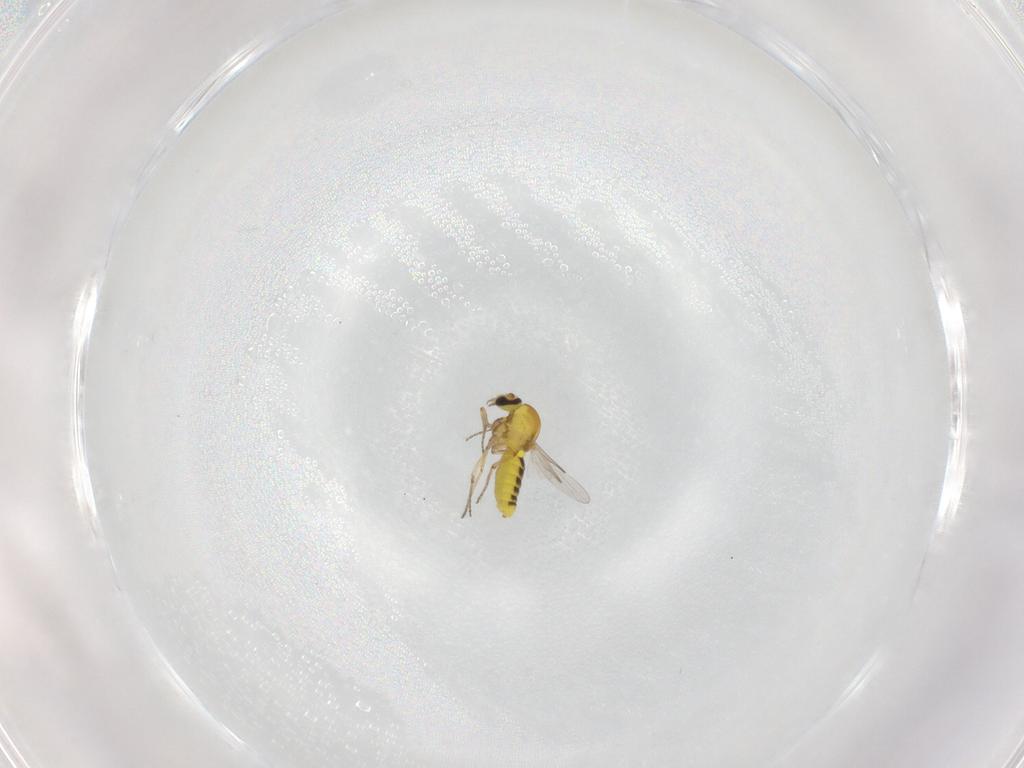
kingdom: Animalia
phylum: Arthropoda
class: Insecta
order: Diptera
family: Ceratopogonidae
